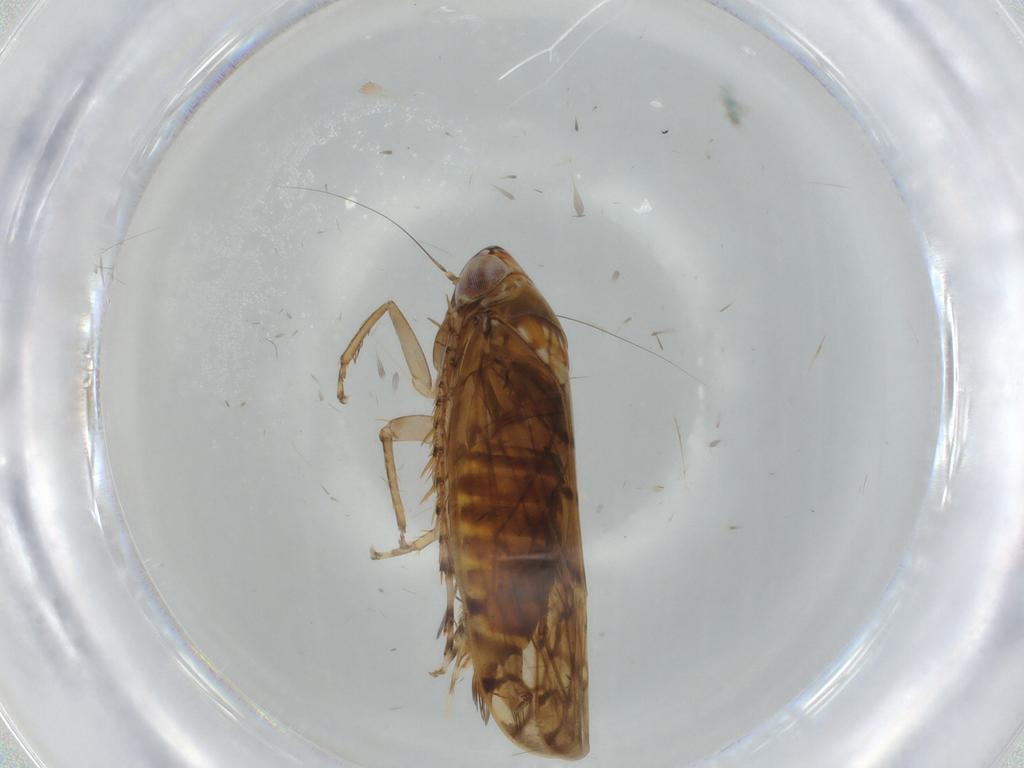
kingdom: Animalia
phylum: Arthropoda
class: Insecta
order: Hemiptera
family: Cicadellidae
